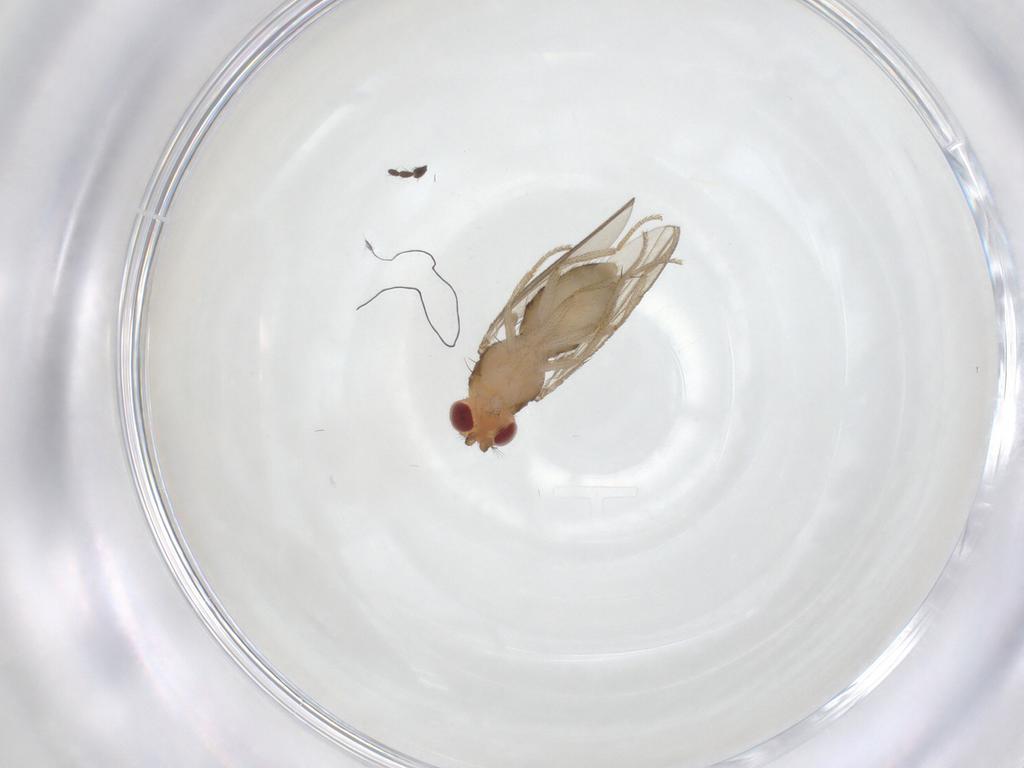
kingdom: Animalia
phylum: Arthropoda
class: Insecta
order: Diptera
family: Drosophilidae
